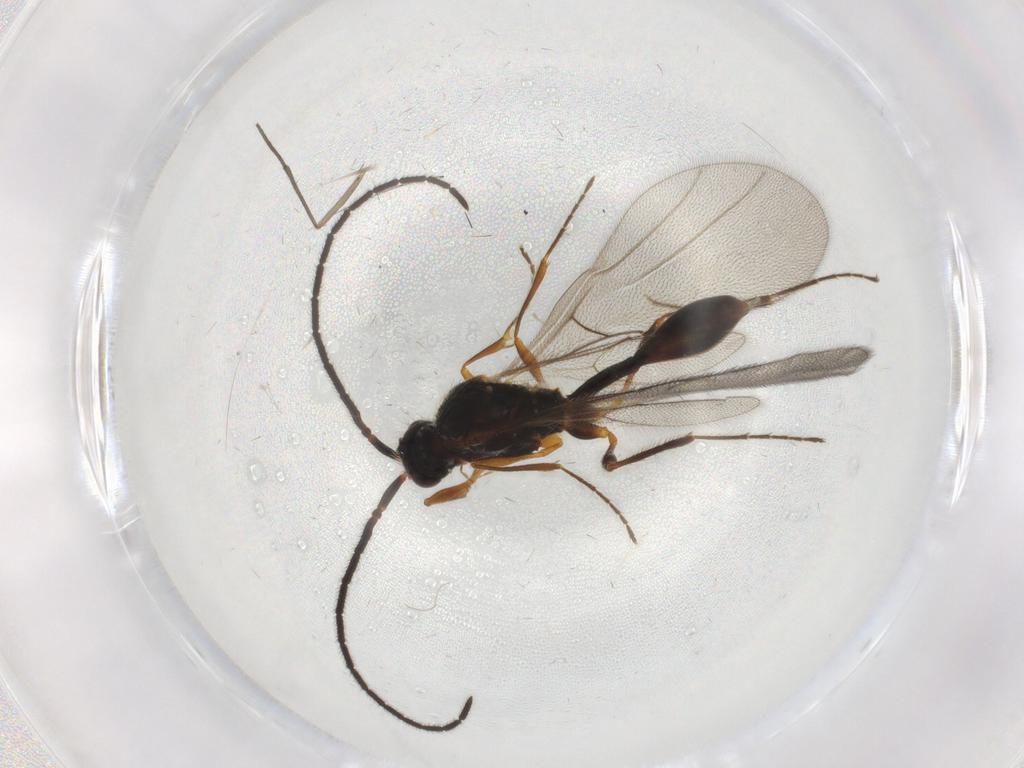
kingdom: Animalia
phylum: Arthropoda
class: Insecta
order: Hymenoptera
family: Diapriidae
